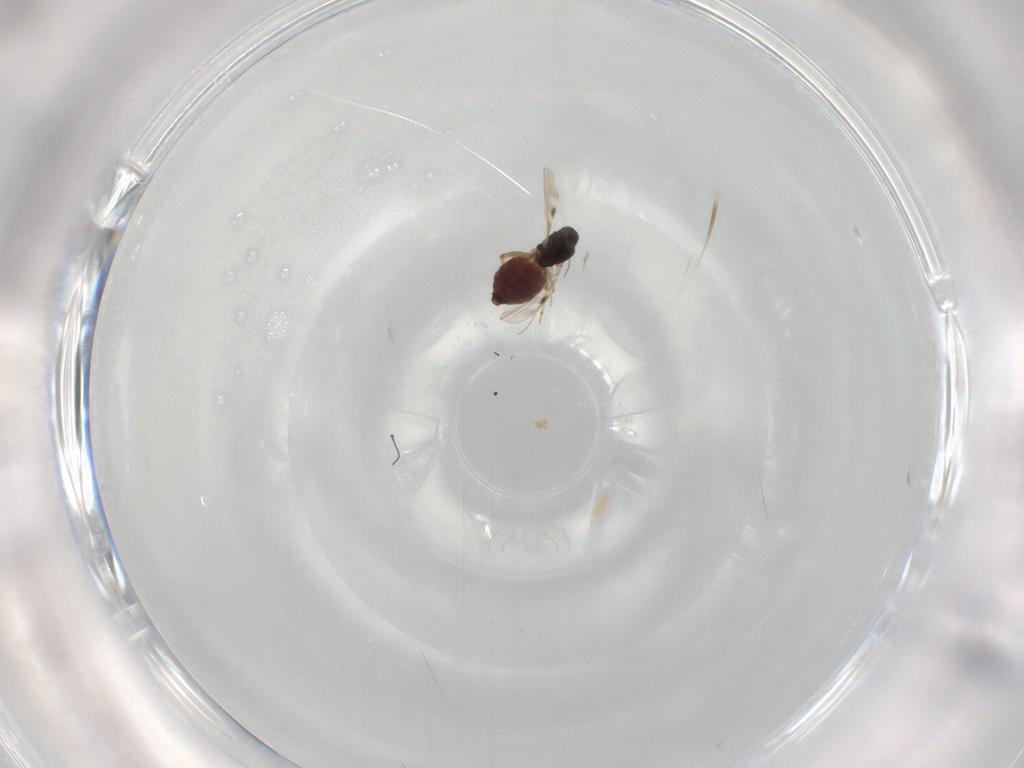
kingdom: Animalia
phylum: Arthropoda
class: Insecta
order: Diptera
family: Cecidomyiidae
